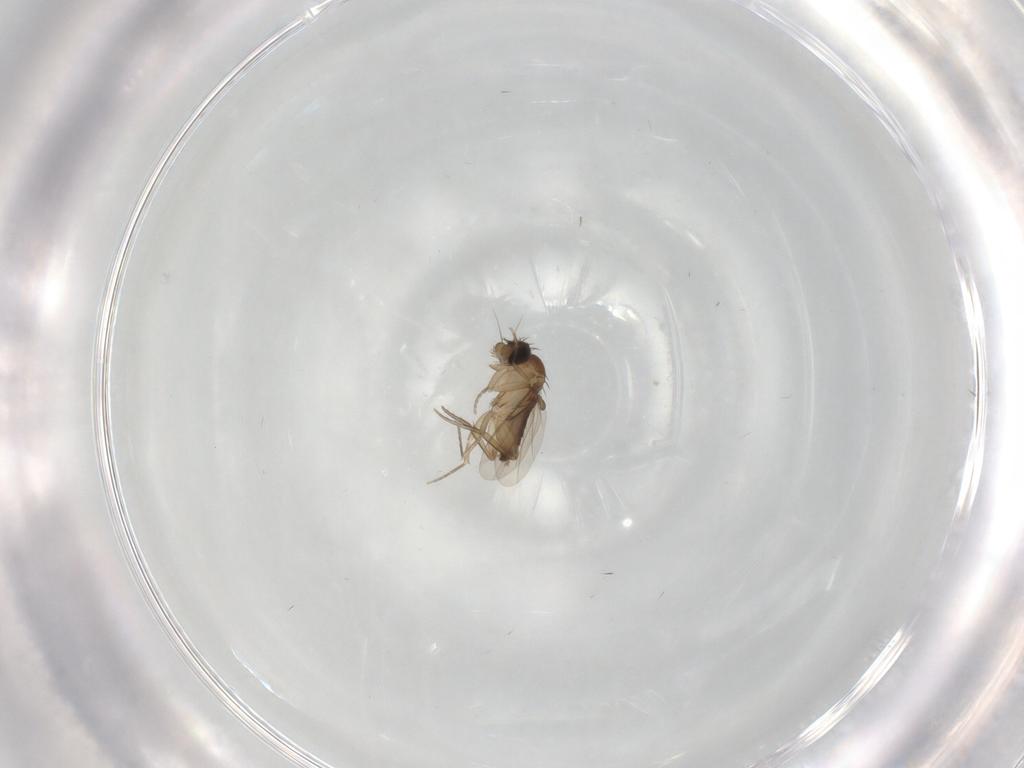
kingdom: Animalia
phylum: Arthropoda
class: Insecta
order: Diptera
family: Phoridae
